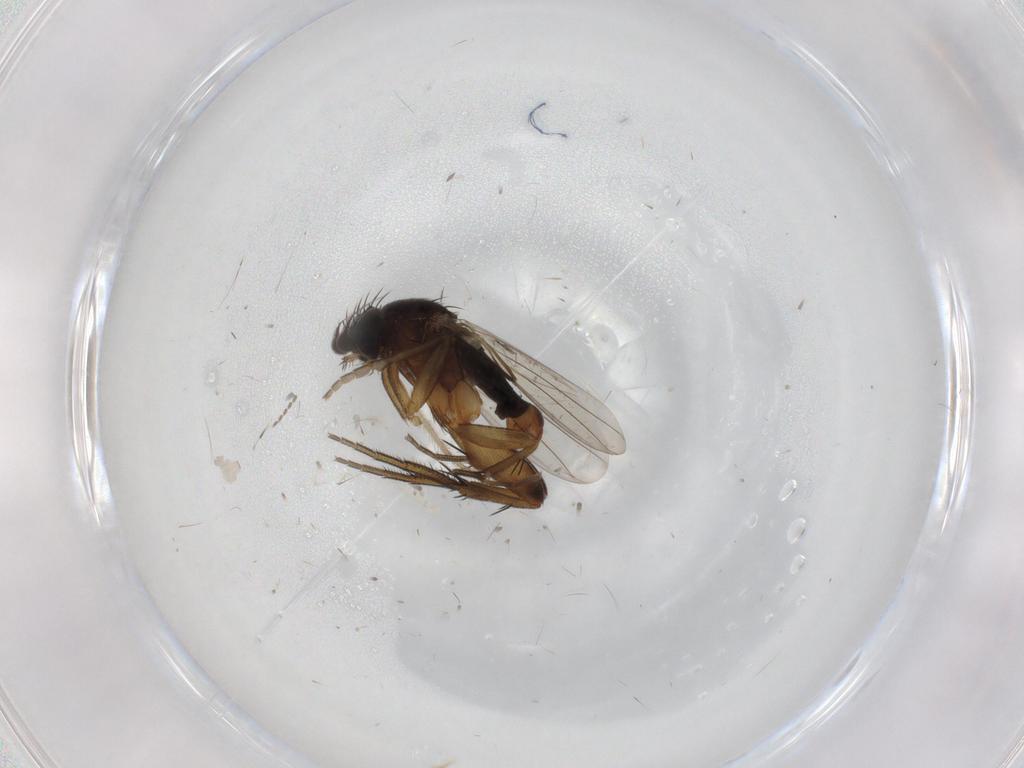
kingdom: Animalia
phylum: Arthropoda
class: Insecta
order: Diptera
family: Phoridae
